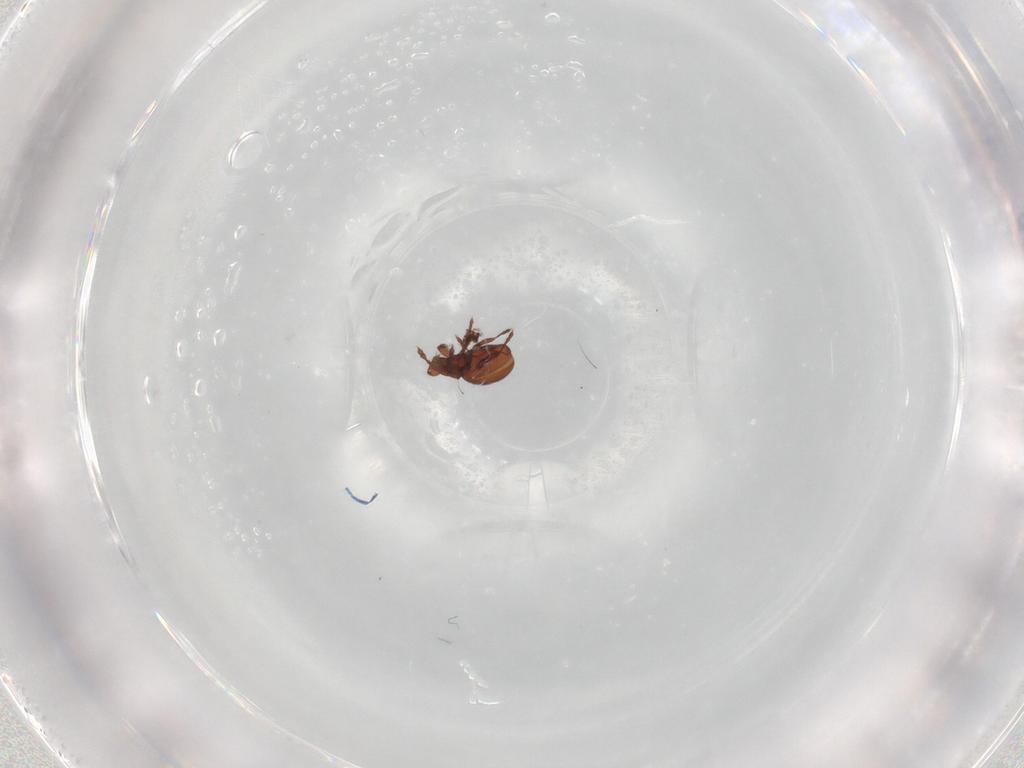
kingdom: Animalia
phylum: Arthropoda
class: Arachnida
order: Sarcoptiformes
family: Eremaeidae
